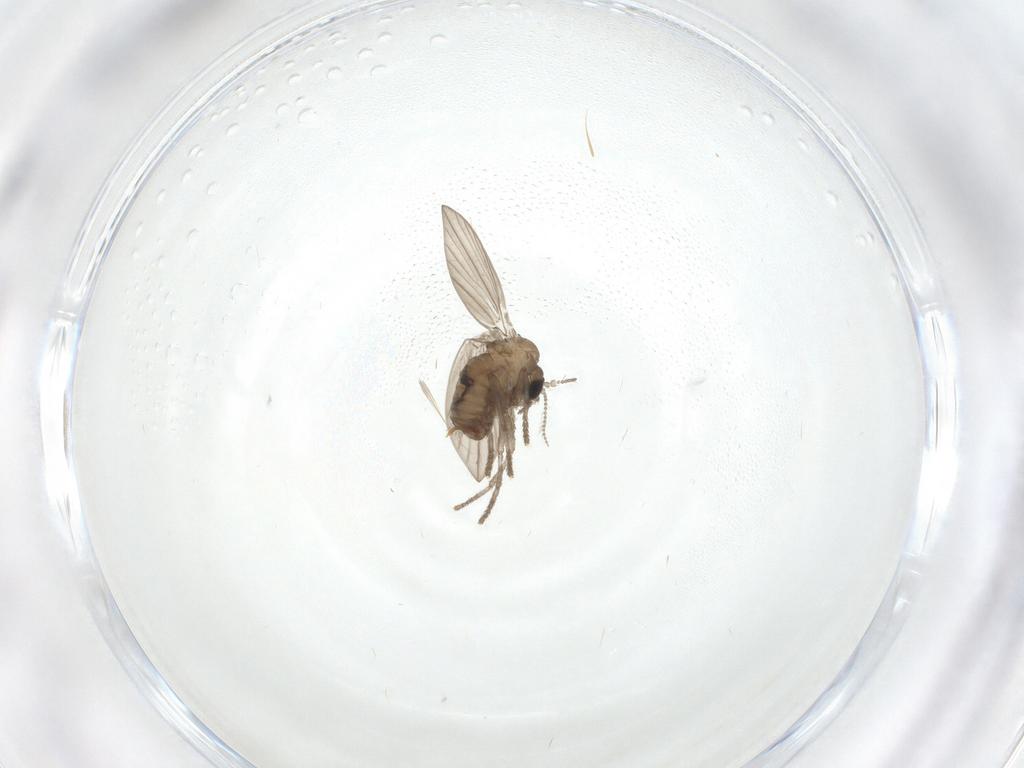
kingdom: Animalia
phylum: Arthropoda
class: Insecta
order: Diptera
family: Psychodidae
